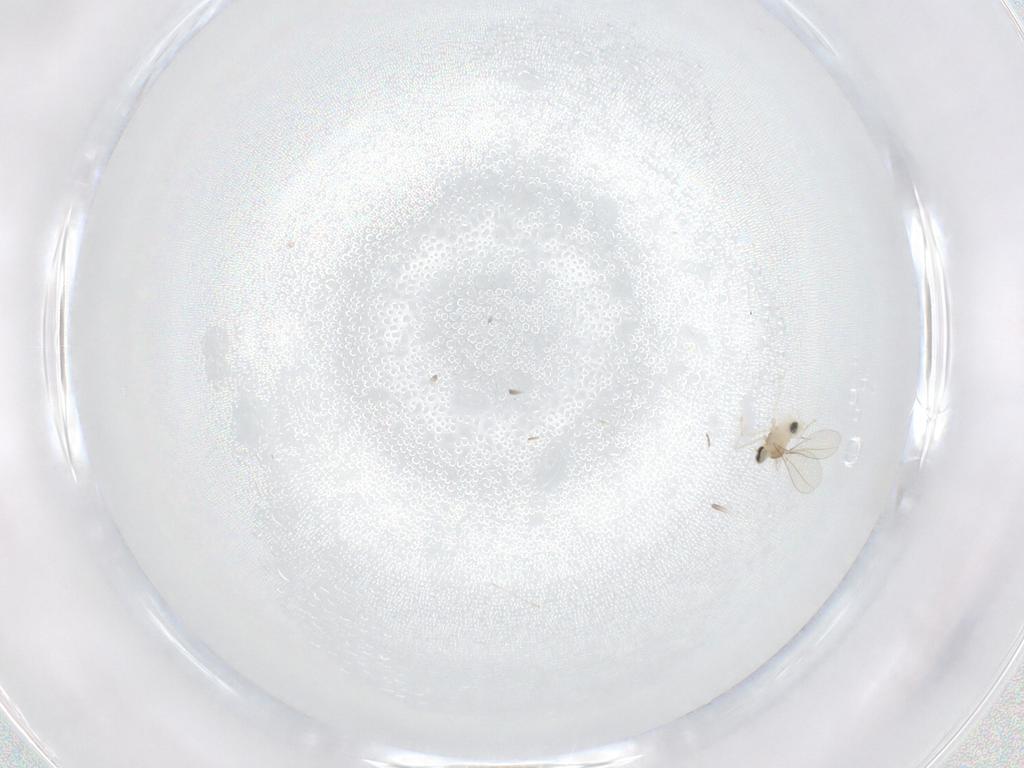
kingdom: Animalia
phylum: Arthropoda
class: Insecta
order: Diptera
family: Cecidomyiidae
